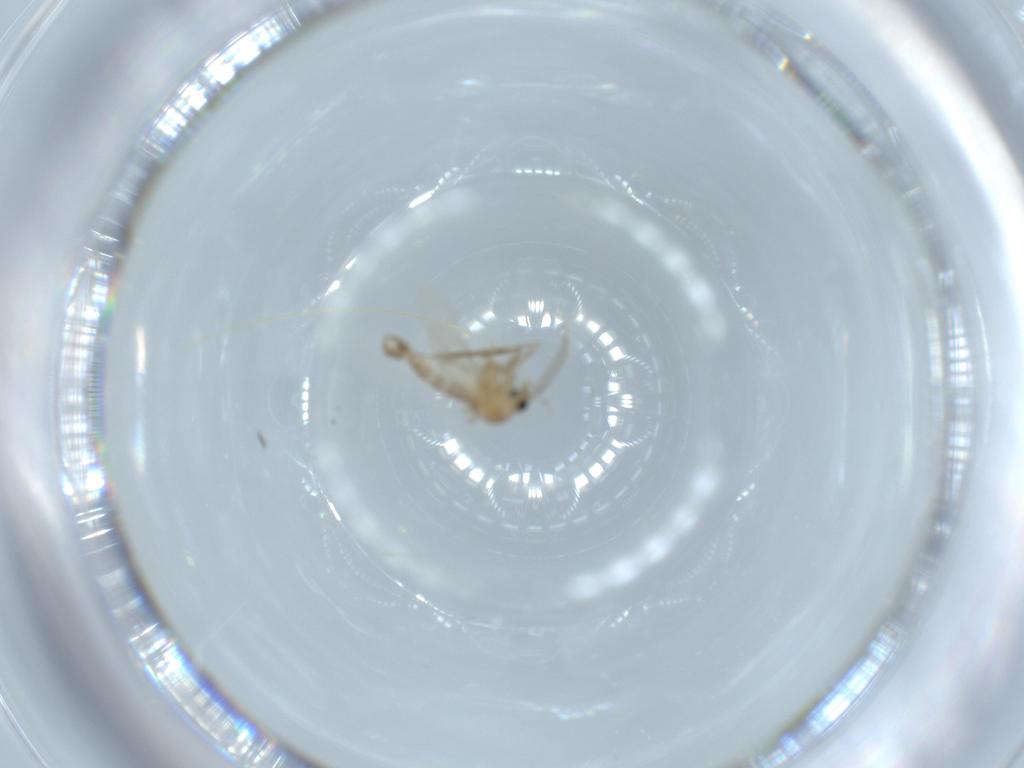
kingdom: Animalia
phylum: Arthropoda
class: Insecta
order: Diptera
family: Psychodidae
